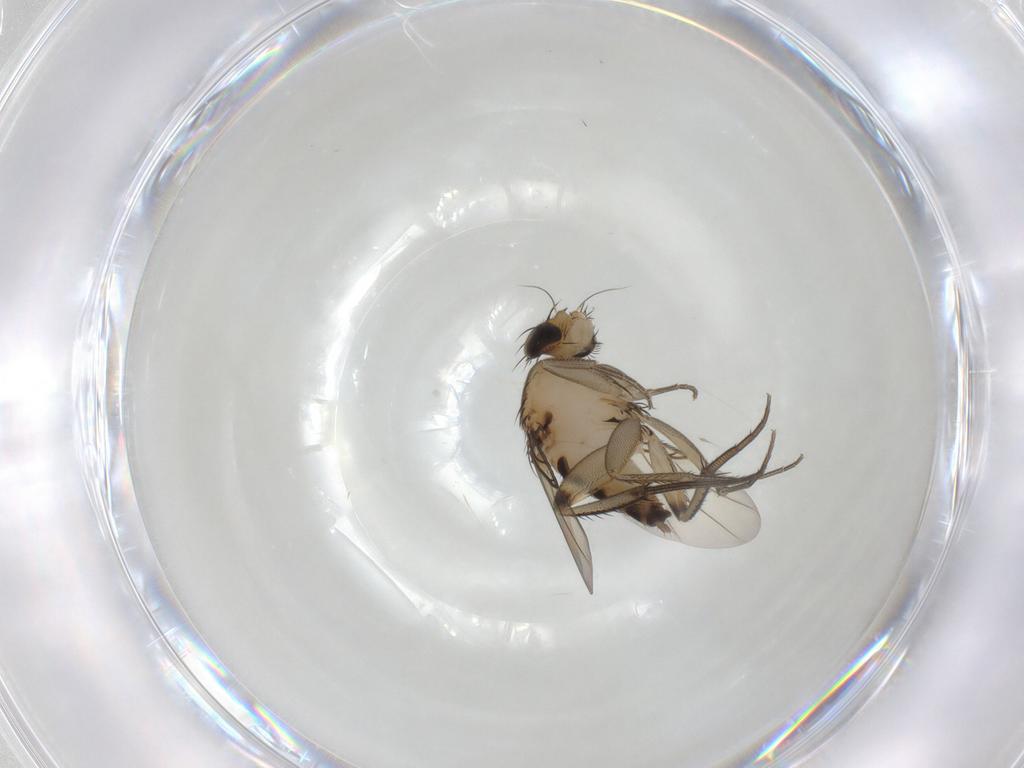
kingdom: Animalia
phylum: Arthropoda
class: Insecta
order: Diptera
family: Phoridae
